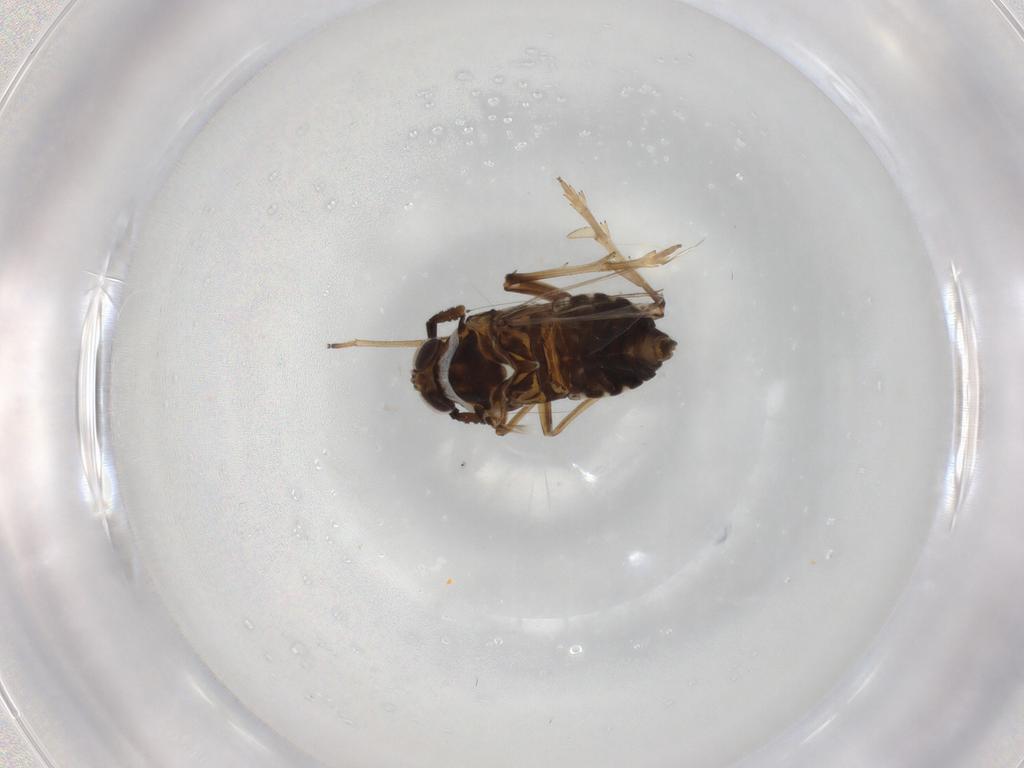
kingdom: Animalia
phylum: Arthropoda
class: Insecta
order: Hemiptera
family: Delphacidae
